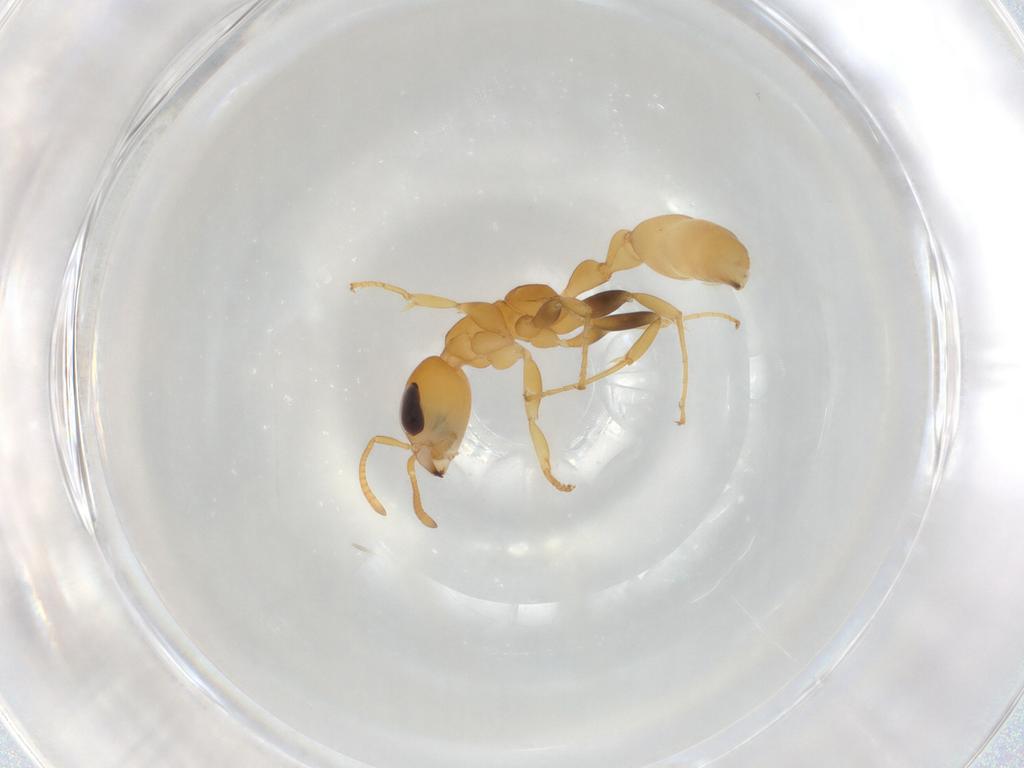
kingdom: Animalia
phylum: Arthropoda
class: Insecta
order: Hymenoptera
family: Formicidae
